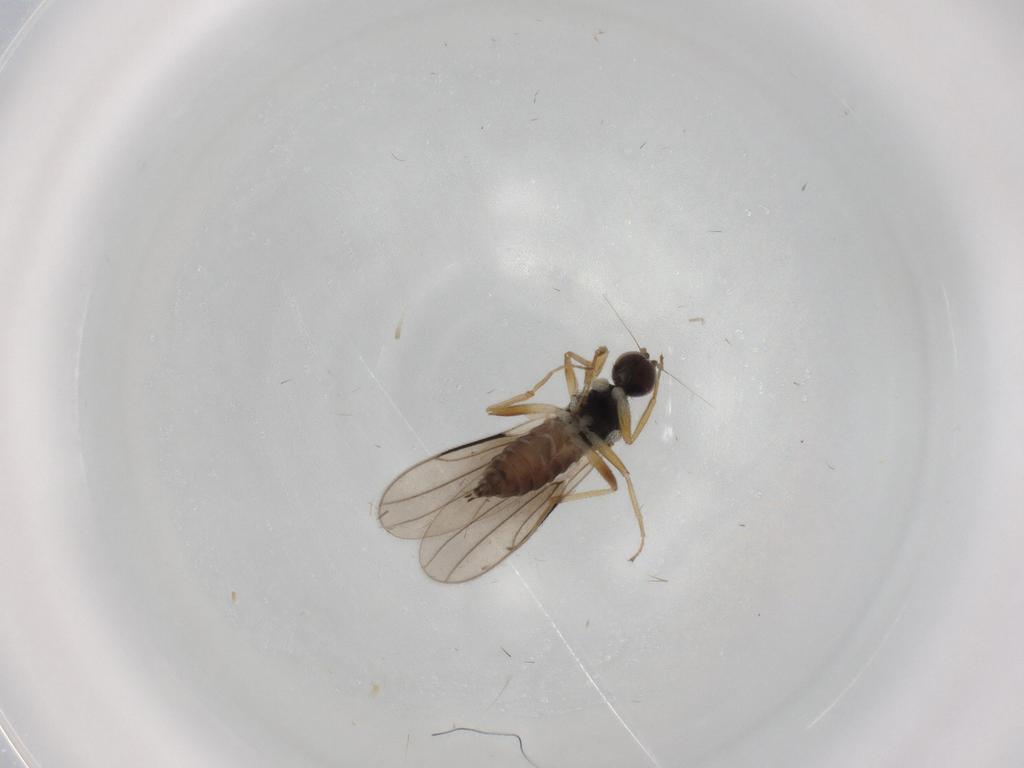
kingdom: Animalia
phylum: Arthropoda
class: Insecta
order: Diptera
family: Hybotidae
